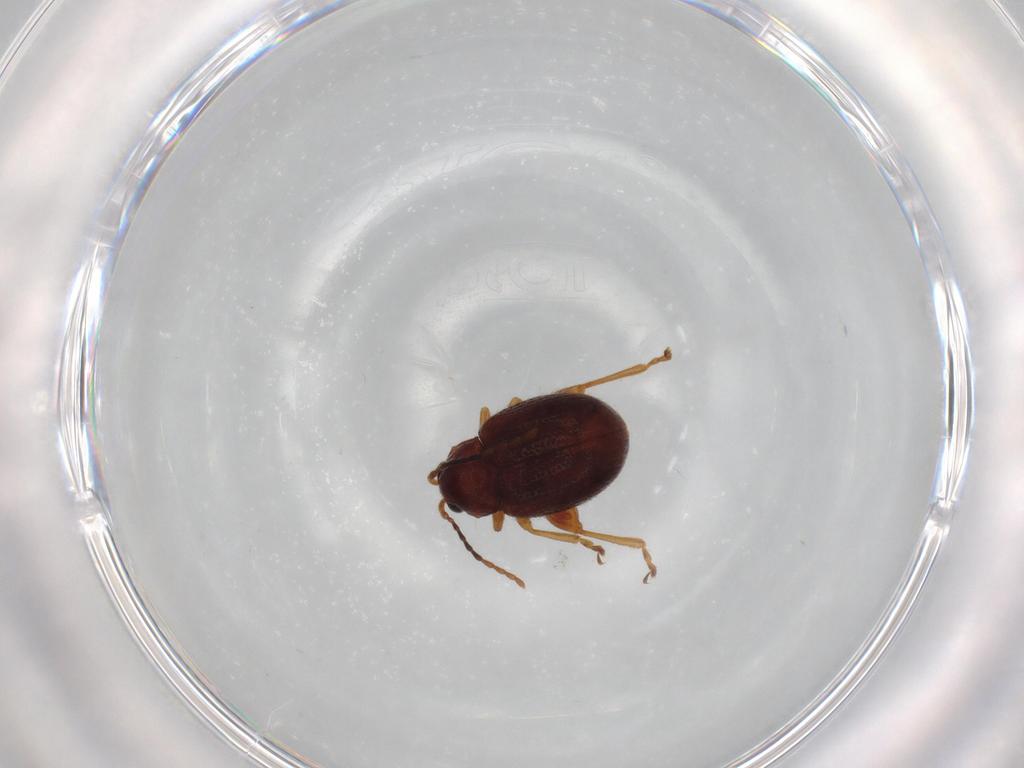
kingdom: Animalia
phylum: Arthropoda
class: Insecta
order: Coleoptera
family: Chrysomelidae
